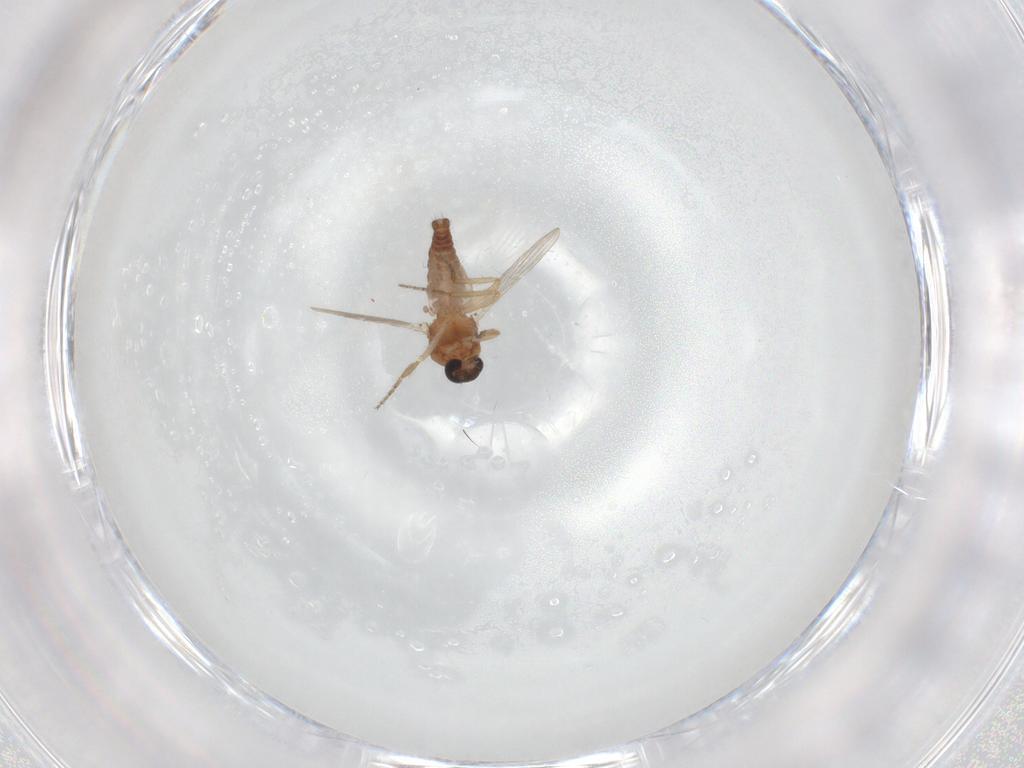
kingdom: Animalia
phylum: Arthropoda
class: Insecta
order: Diptera
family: Ceratopogonidae
